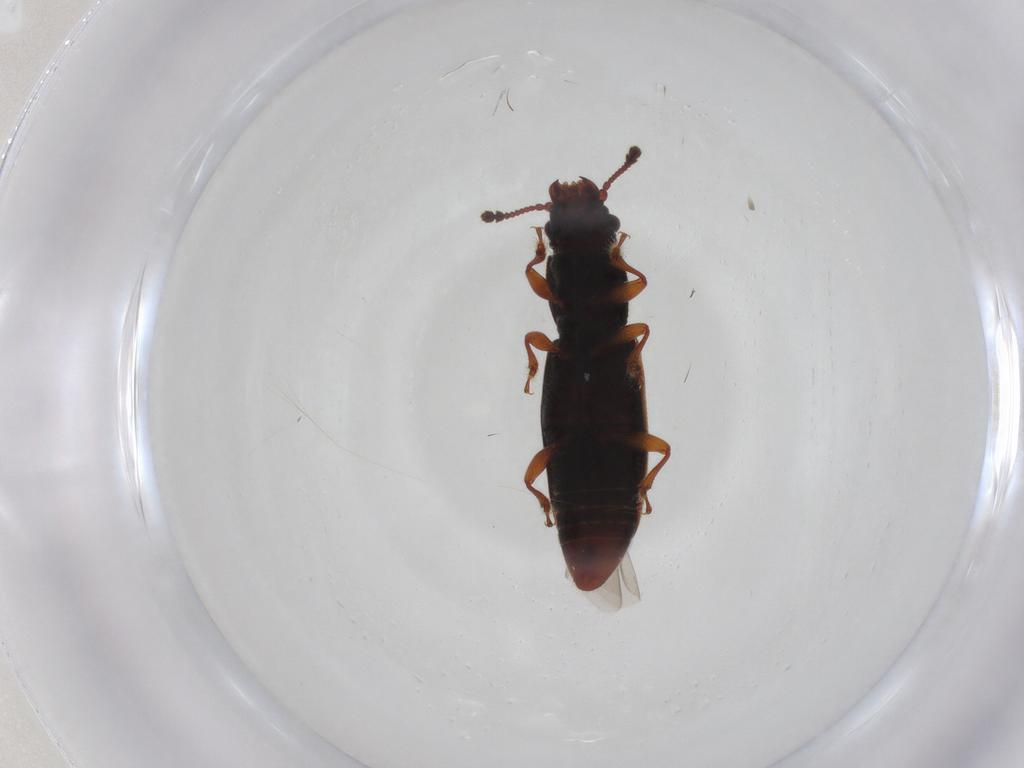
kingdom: Animalia
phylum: Arthropoda
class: Insecta
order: Coleoptera
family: Monotomidae
